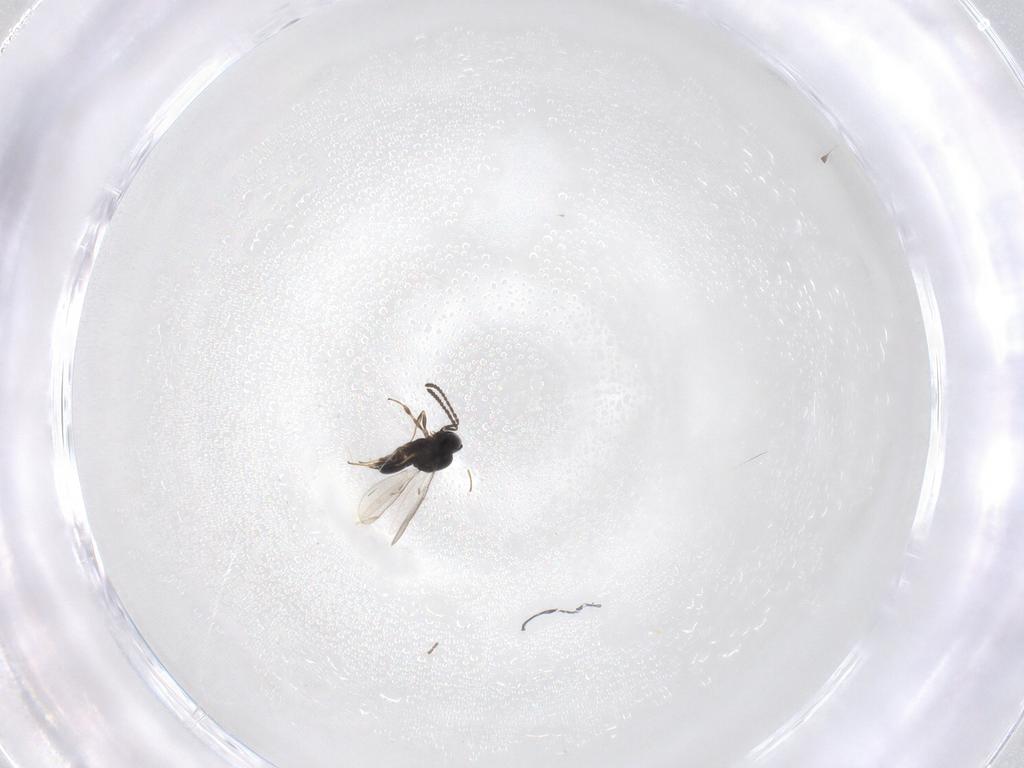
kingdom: Animalia
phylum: Arthropoda
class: Insecta
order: Hymenoptera
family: Scelionidae
